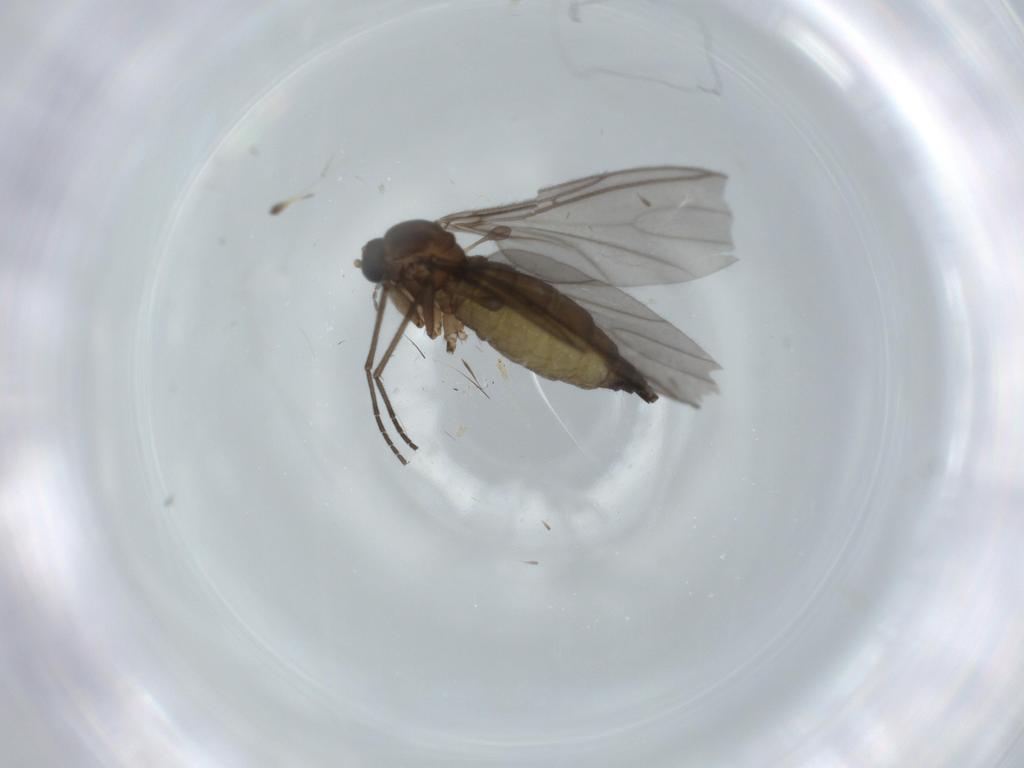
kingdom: Animalia
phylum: Arthropoda
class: Insecta
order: Diptera
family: Sciaridae
